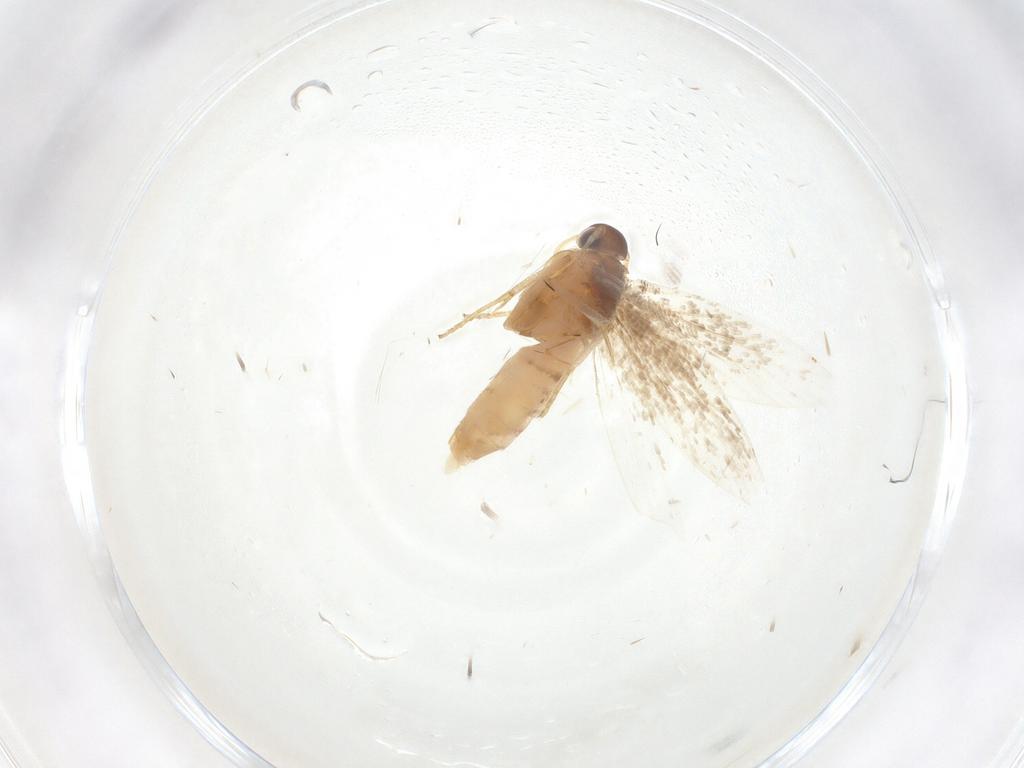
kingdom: Animalia
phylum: Arthropoda
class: Insecta
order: Lepidoptera
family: Gelechiidae
